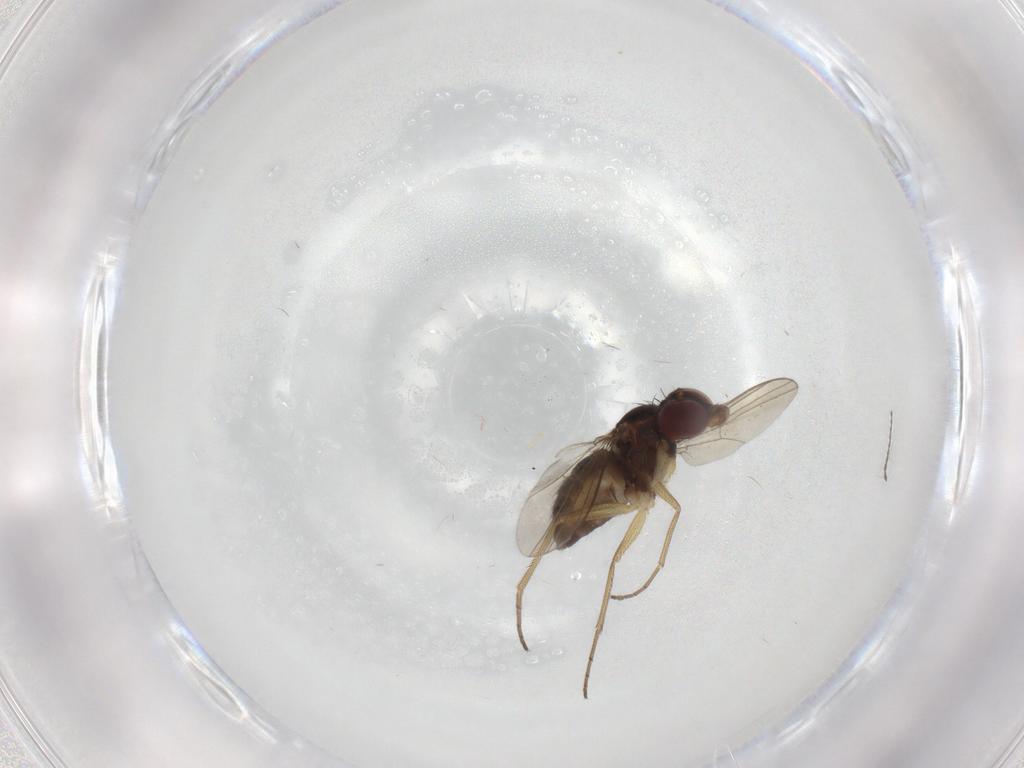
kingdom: Animalia
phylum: Arthropoda
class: Insecta
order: Diptera
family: Dolichopodidae
